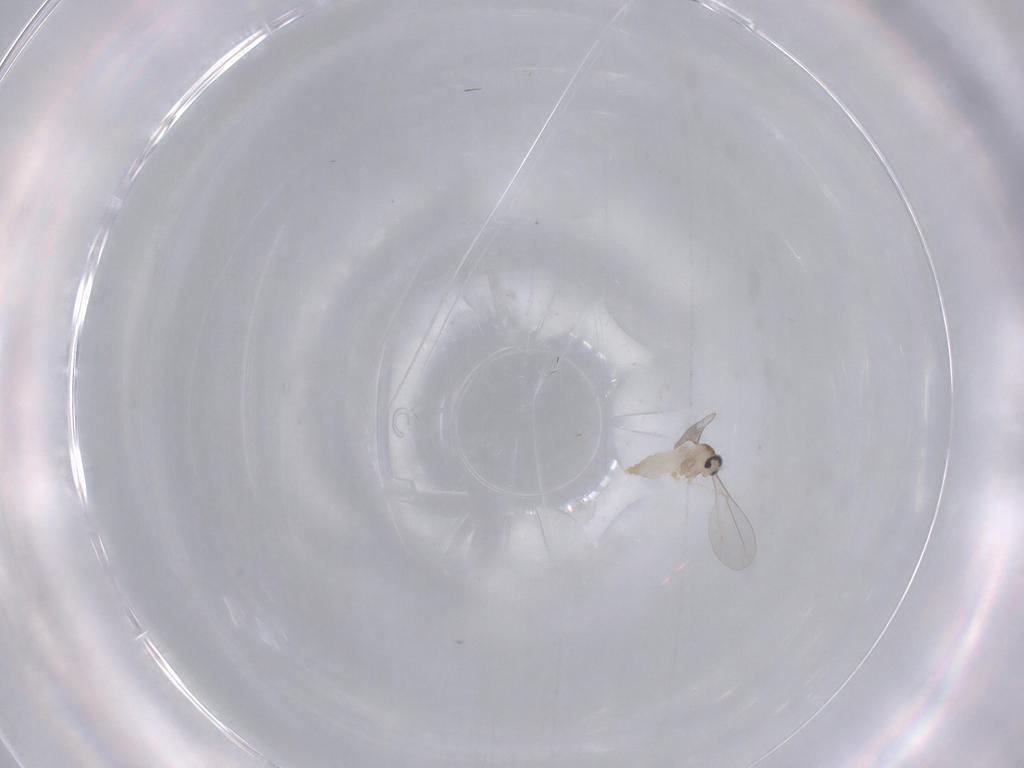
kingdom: Animalia
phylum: Arthropoda
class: Insecta
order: Diptera
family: Cecidomyiidae
